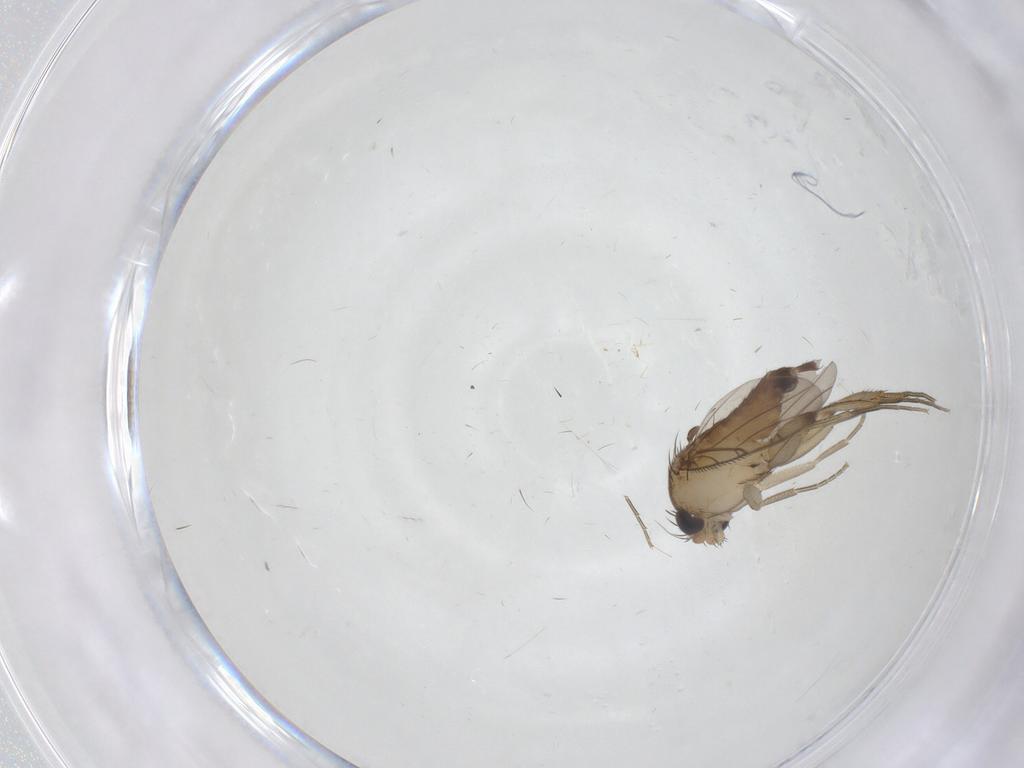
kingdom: Animalia
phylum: Arthropoda
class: Insecta
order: Diptera
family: Phoridae
